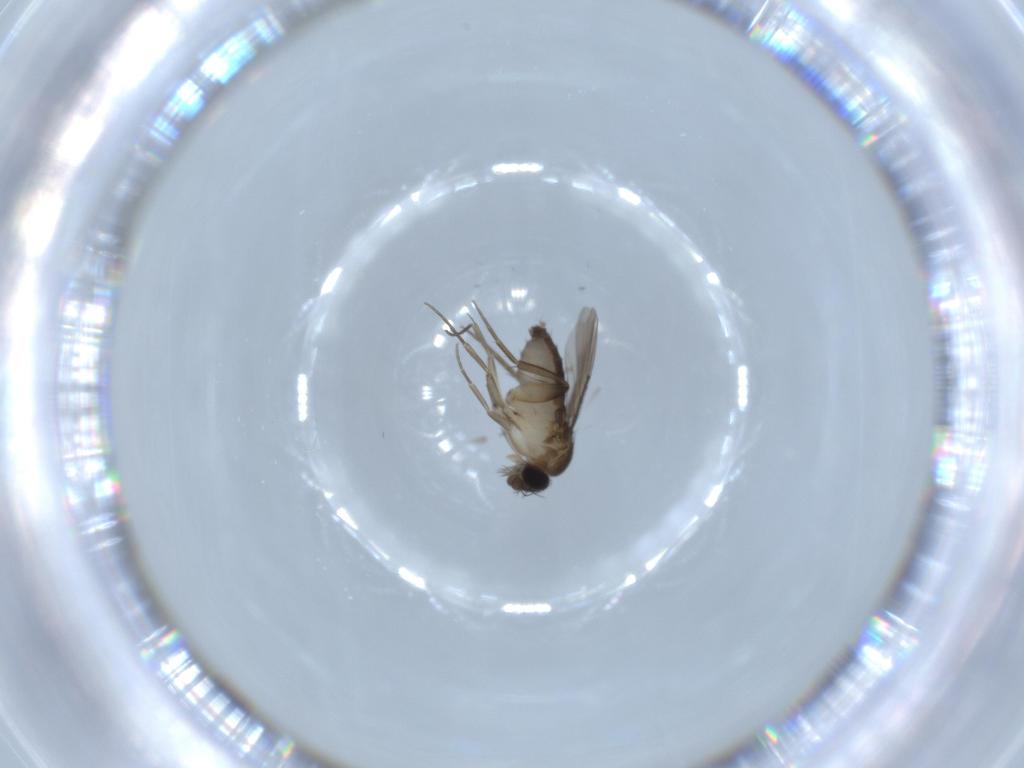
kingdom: Animalia
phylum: Arthropoda
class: Insecta
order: Diptera
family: Phoridae
